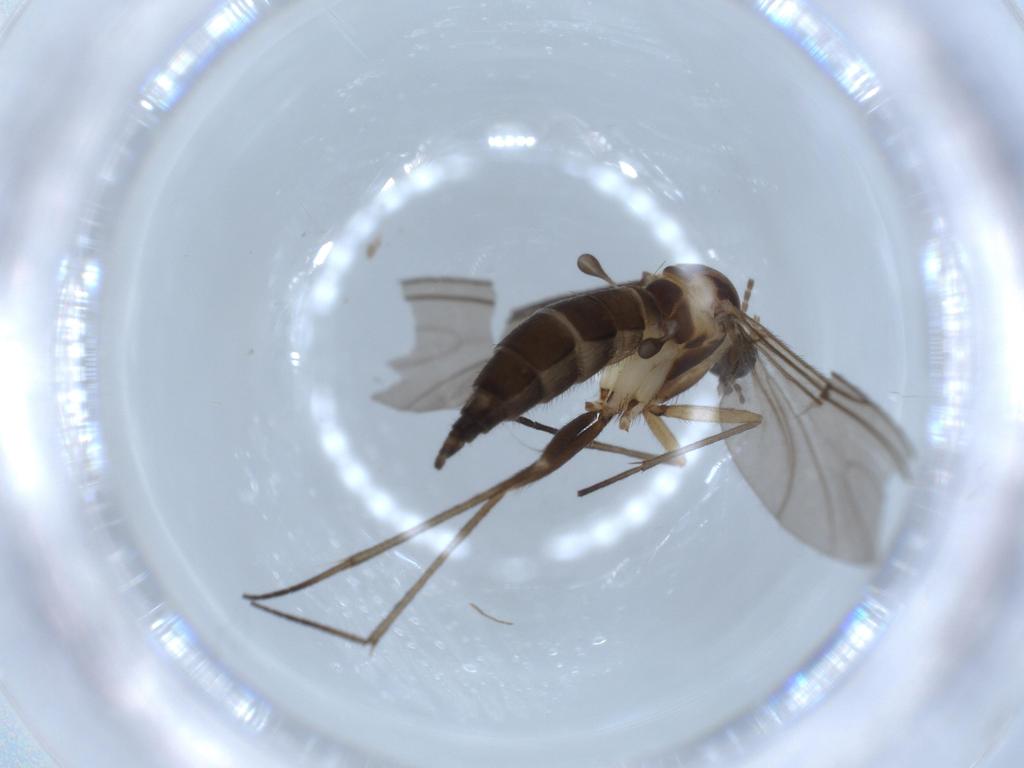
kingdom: Animalia
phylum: Arthropoda
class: Insecta
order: Diptera
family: Sciaridae
